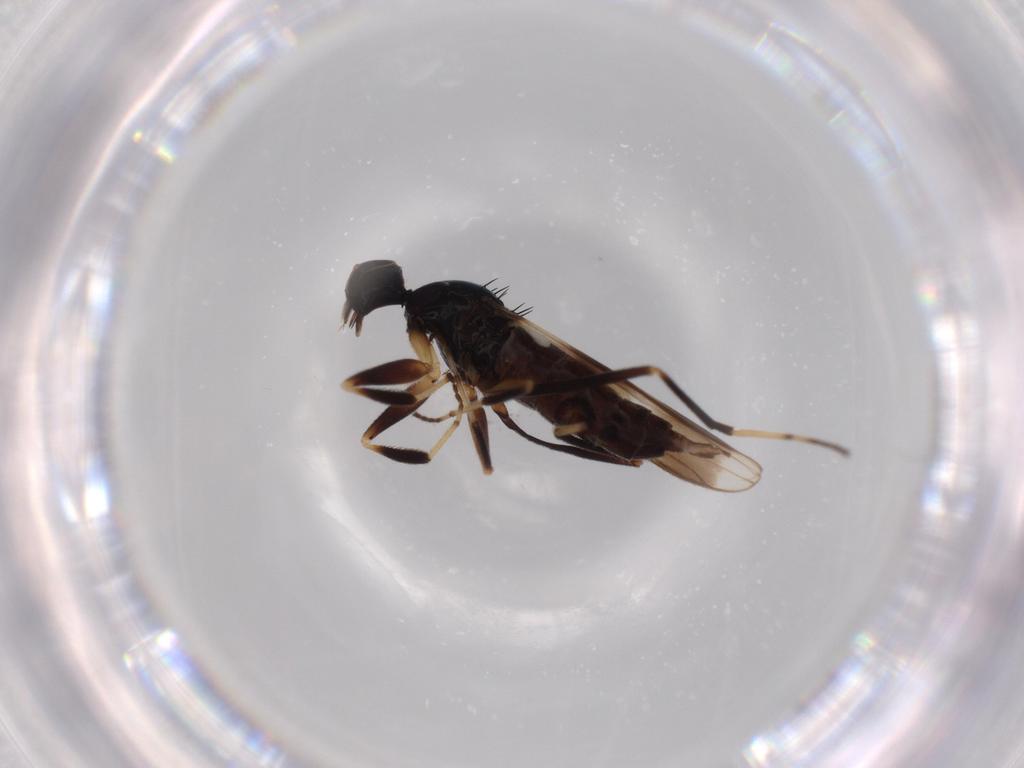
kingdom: Animalia
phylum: Arthropoda
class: Insecta
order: Diptera
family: Hybotidae
